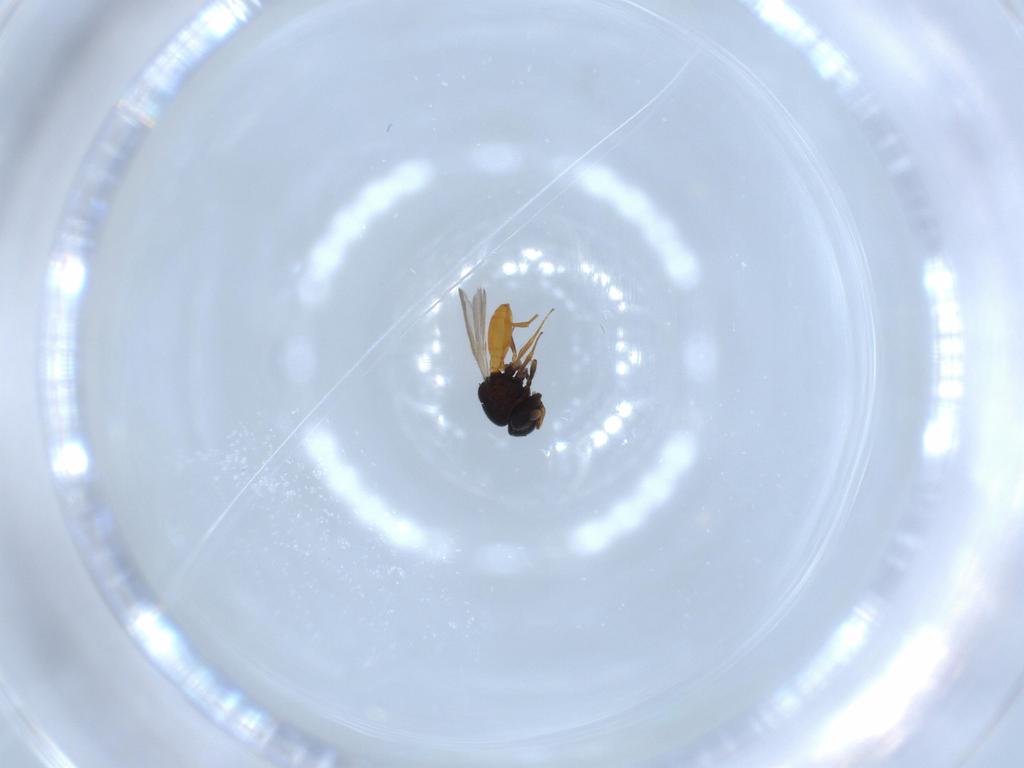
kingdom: Animalia
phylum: Arthropoda
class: Insecta
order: Hymenoptera
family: Scelionidae
